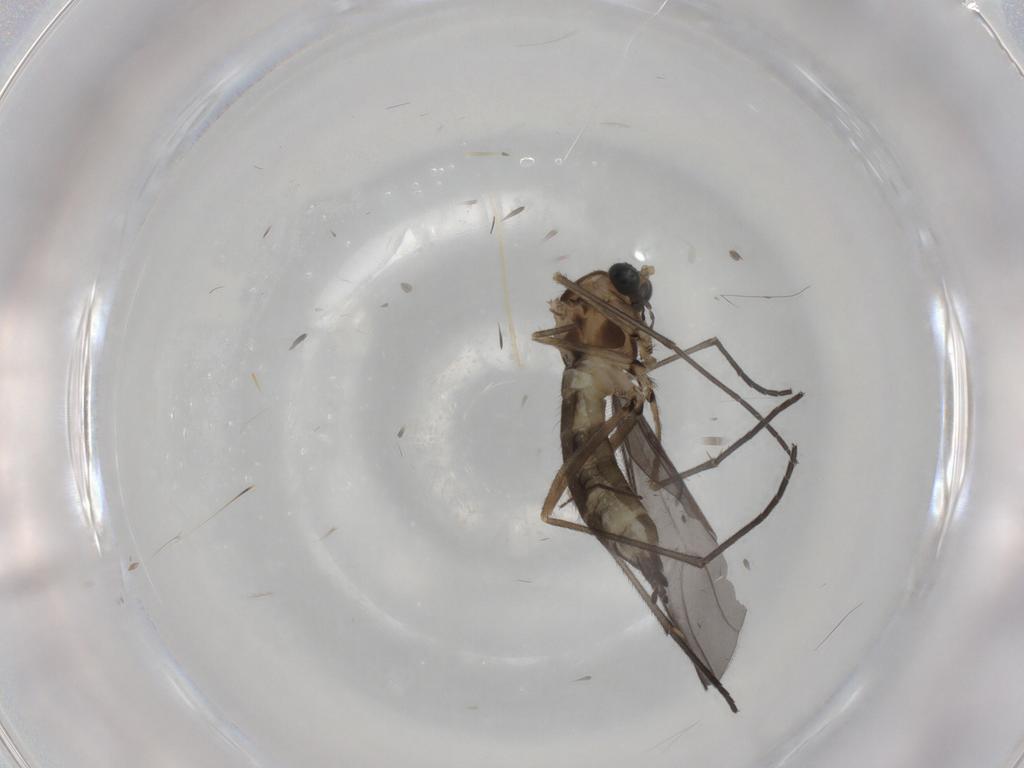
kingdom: Animalia
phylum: Arthropoda
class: Insecta
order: Diptera
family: Sciaridae
